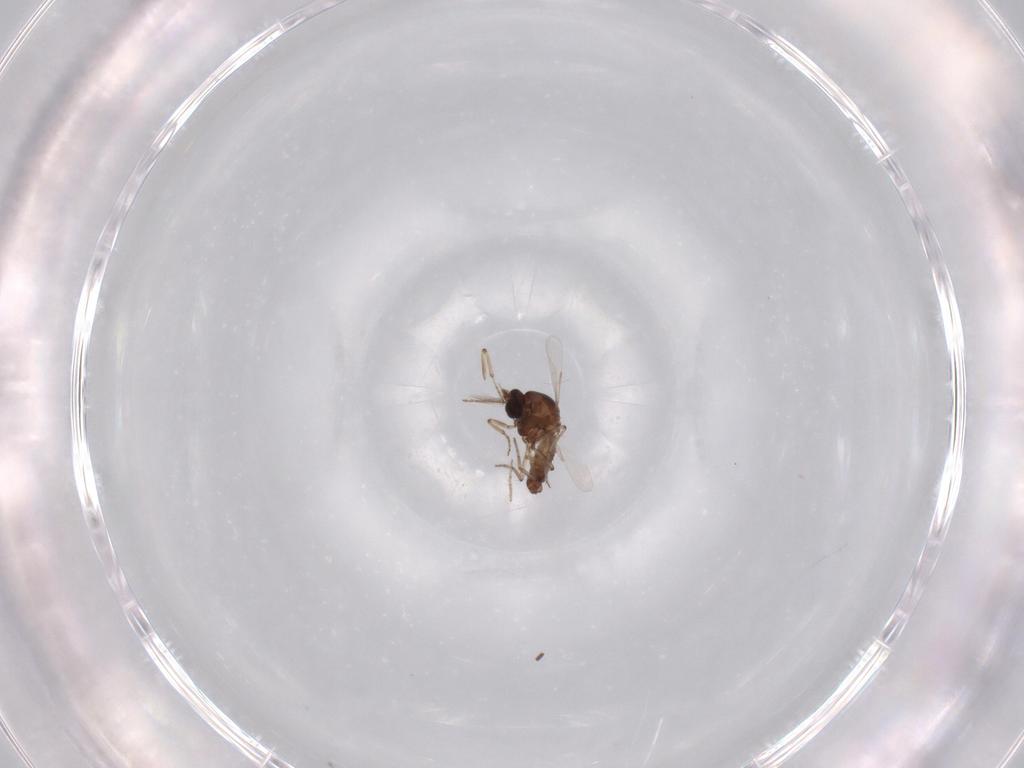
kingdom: Animalia
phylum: Arthropoda
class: Insecta
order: Diptera
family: Ceratopogonidae
